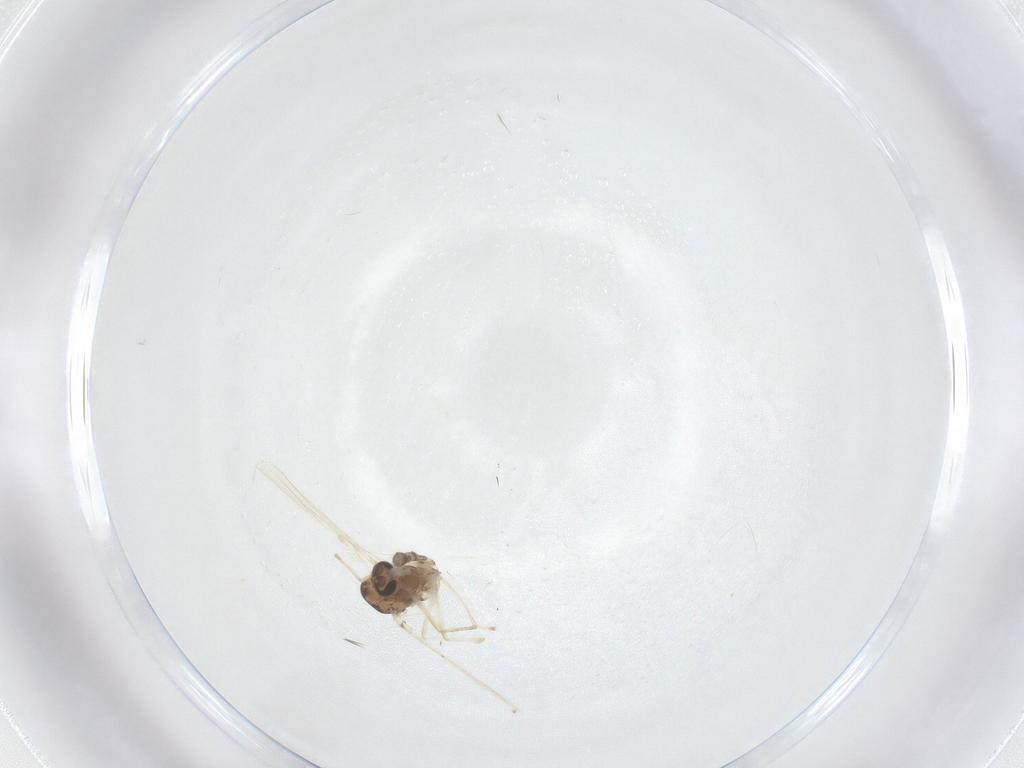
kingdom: Animalia
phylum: Arthropoda
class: Insecta
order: Diptera
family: Chironomidae
